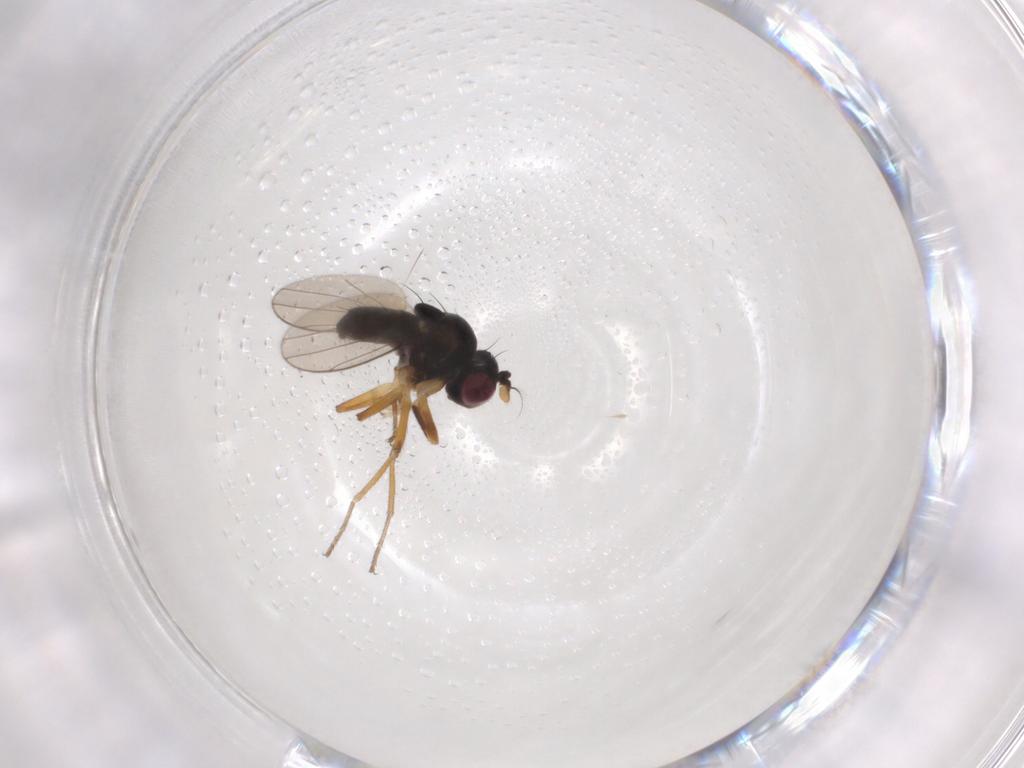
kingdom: Animalia
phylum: Arthropoda
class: Insecta
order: Diptera
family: Ephydridae
